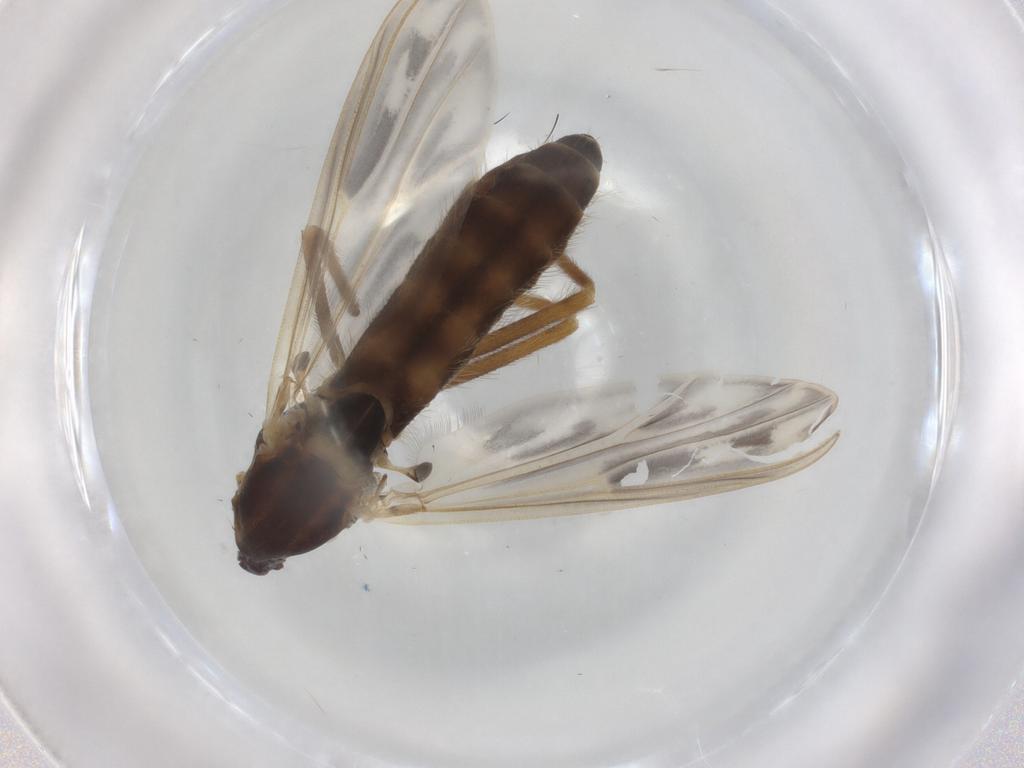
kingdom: Animalia
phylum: Arthropoda
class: Insecta
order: Diptera
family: Chironomidae
